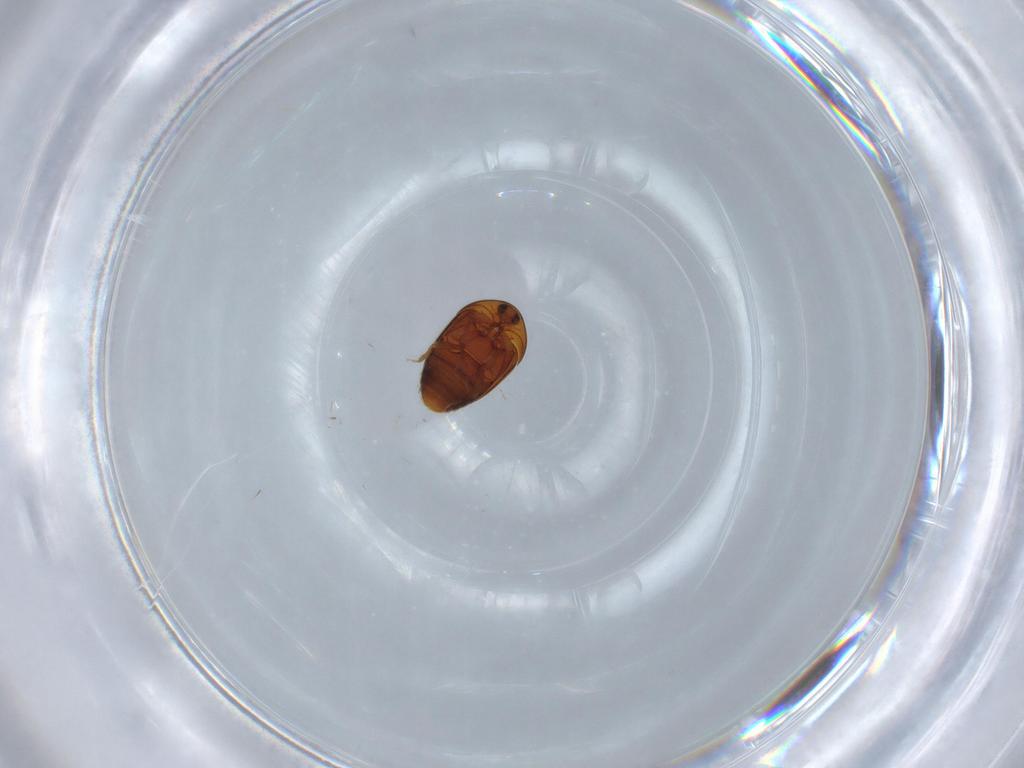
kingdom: Animalia
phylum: Arthropoda
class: Insecta
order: Coleoptera
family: Corylophidae
